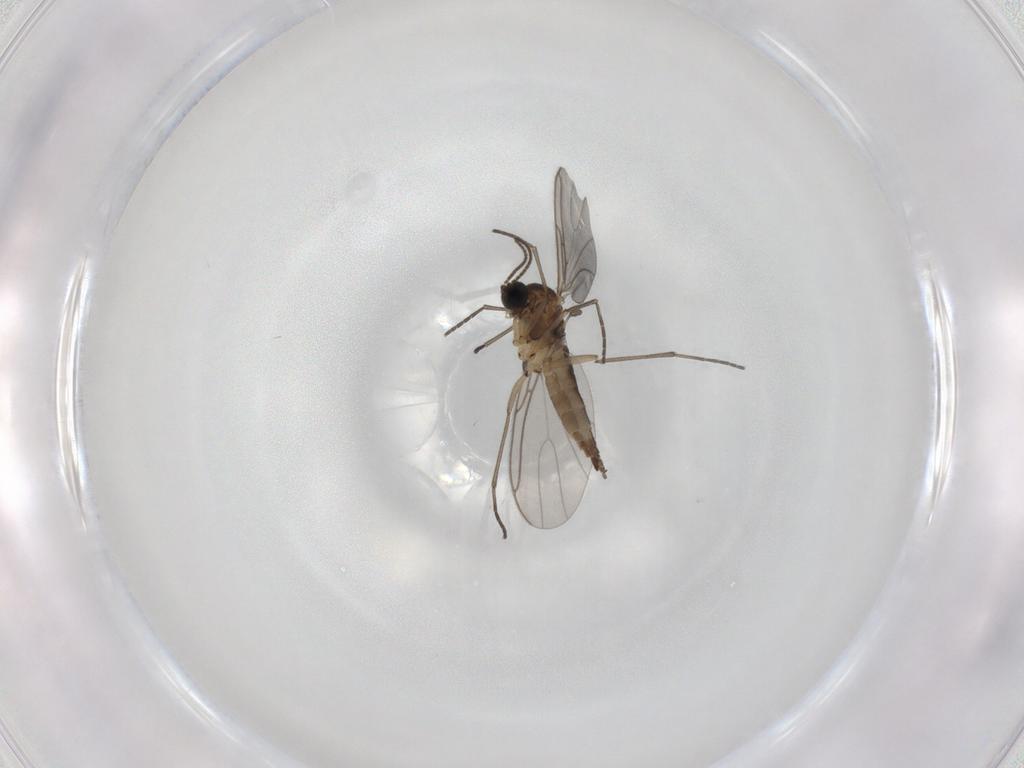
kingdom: Animalia
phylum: Arthropoda
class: Insecta
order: Diptera
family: Sciaridae
